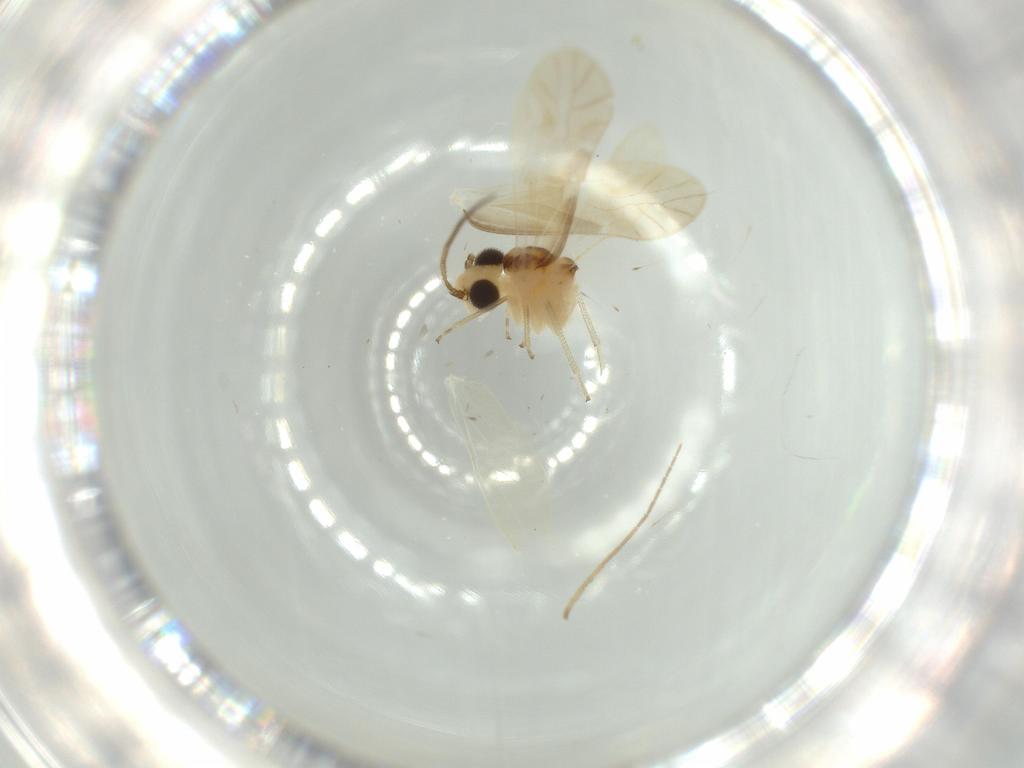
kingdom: Animalia
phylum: Arthropoda
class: Insecta
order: Psocodea
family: Caeciliusidae
